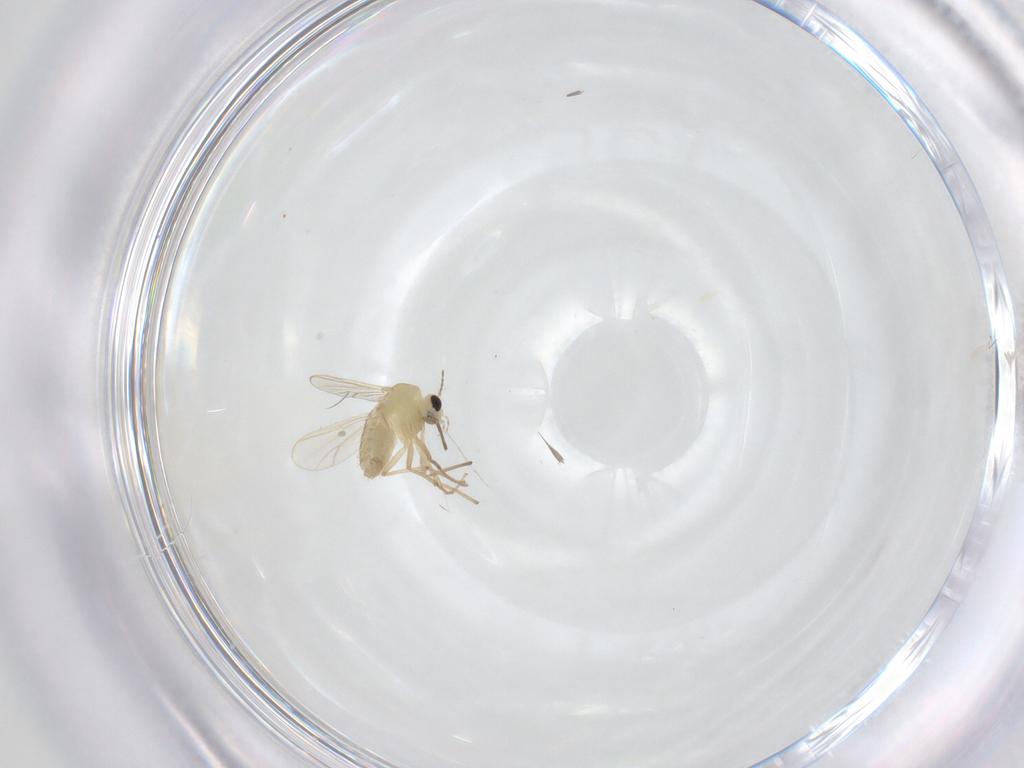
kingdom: Animalia
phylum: Arthropoda
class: Insecta
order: Diptera
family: Chironomidae
